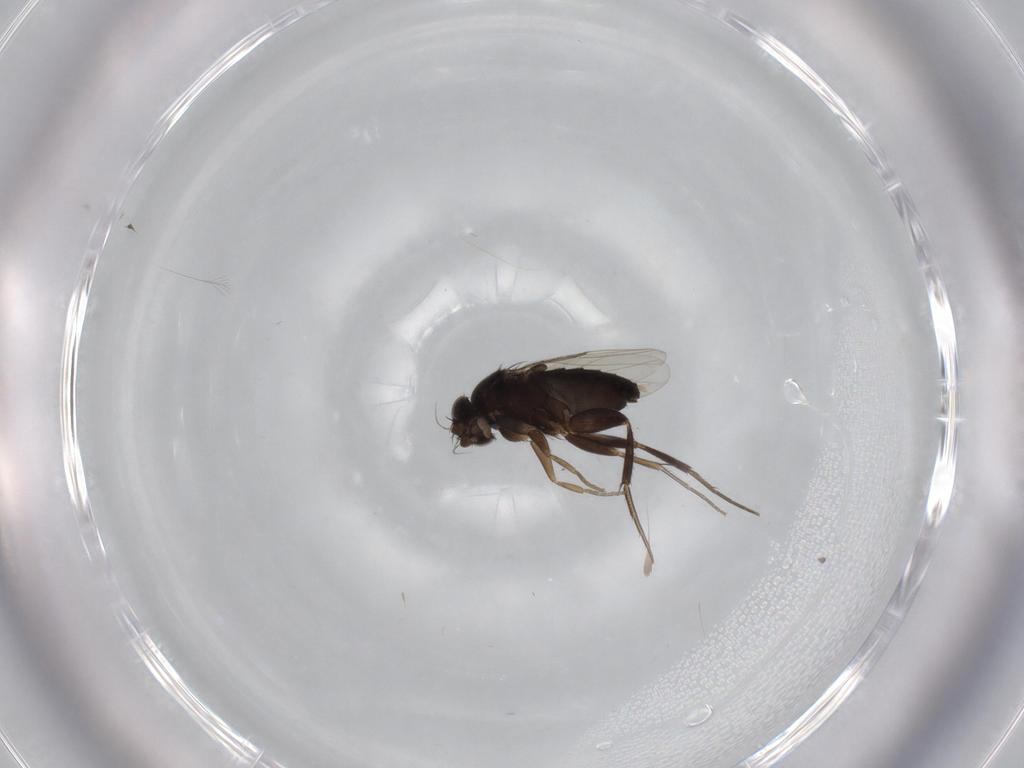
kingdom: Animalia
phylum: Arthropoda
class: Insecta
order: Diptera
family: Phoridae
